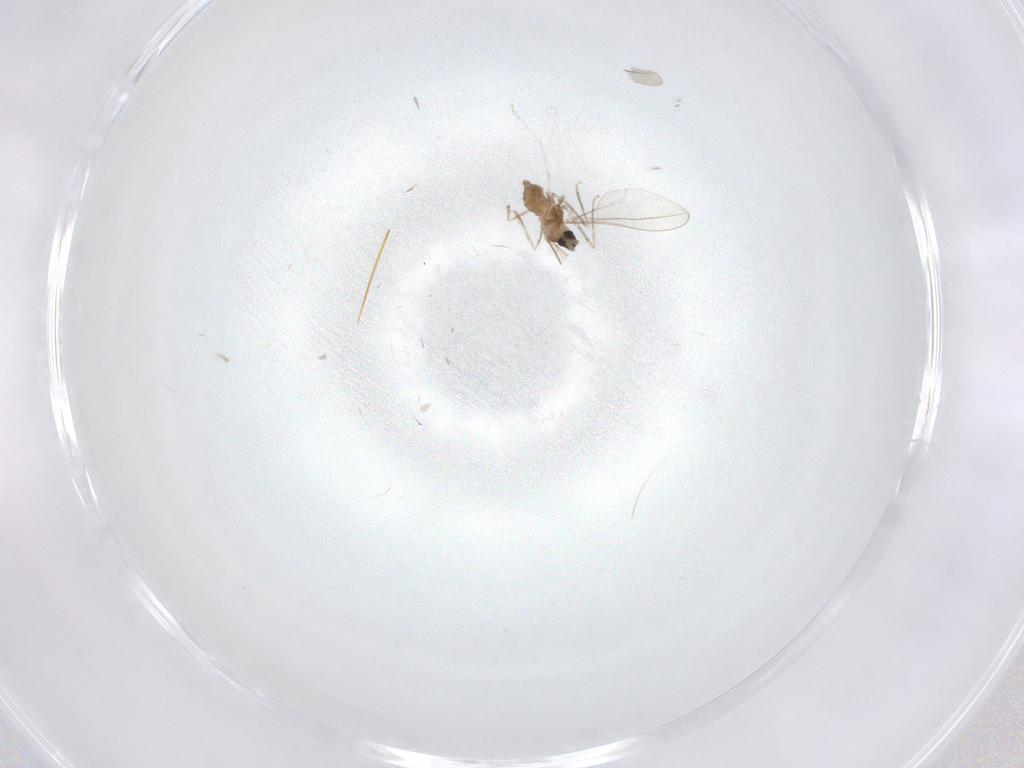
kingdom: Animalia
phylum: Arthropoda
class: Insecta
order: Diptera
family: Cecidomyiidae
